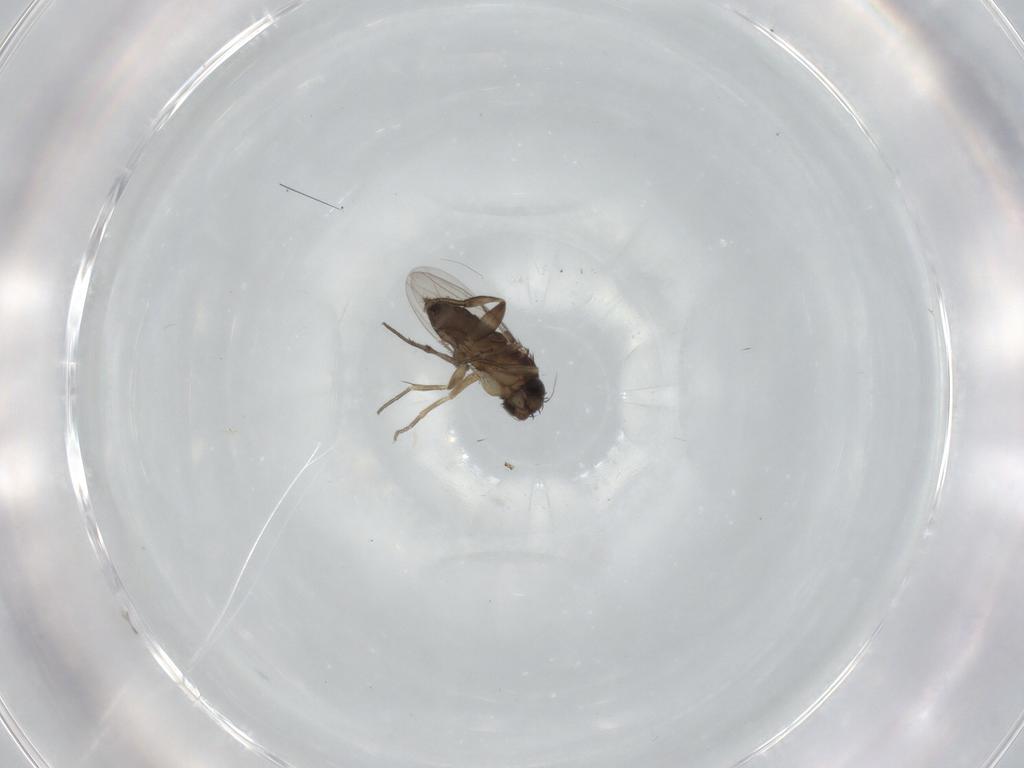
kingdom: Animalia
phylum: Arthropoda
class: Insecta
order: Diptera
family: Phoridae
